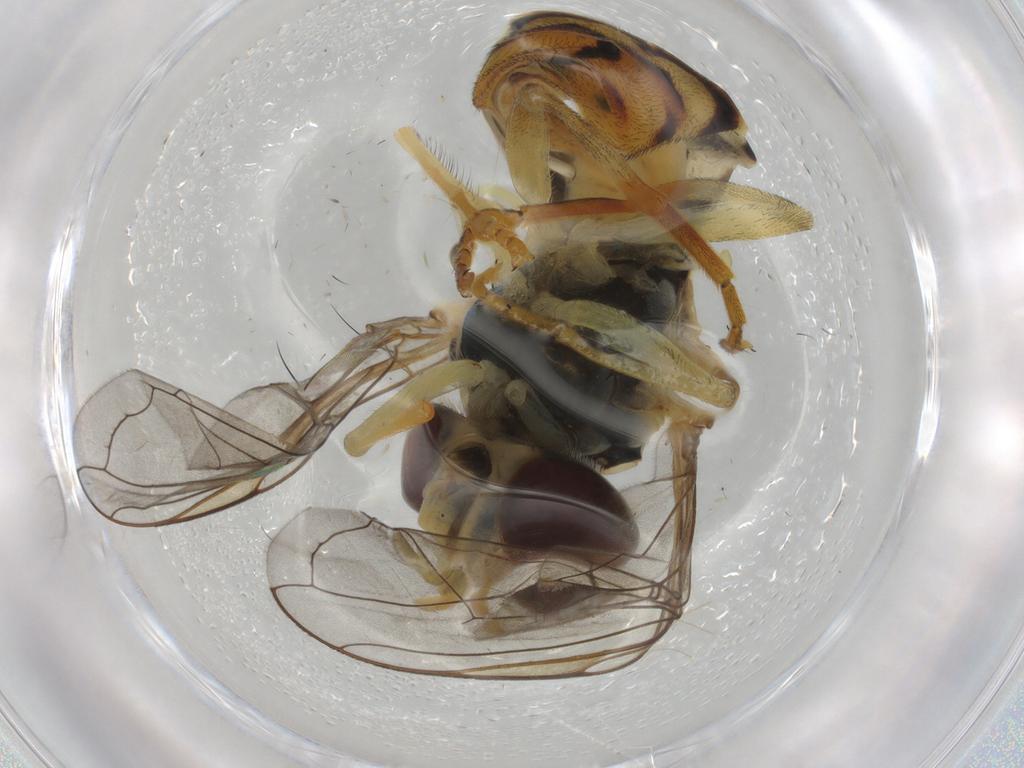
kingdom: Animalia
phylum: Arthropoda
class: Insecta
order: Diptera
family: Syrphidae
